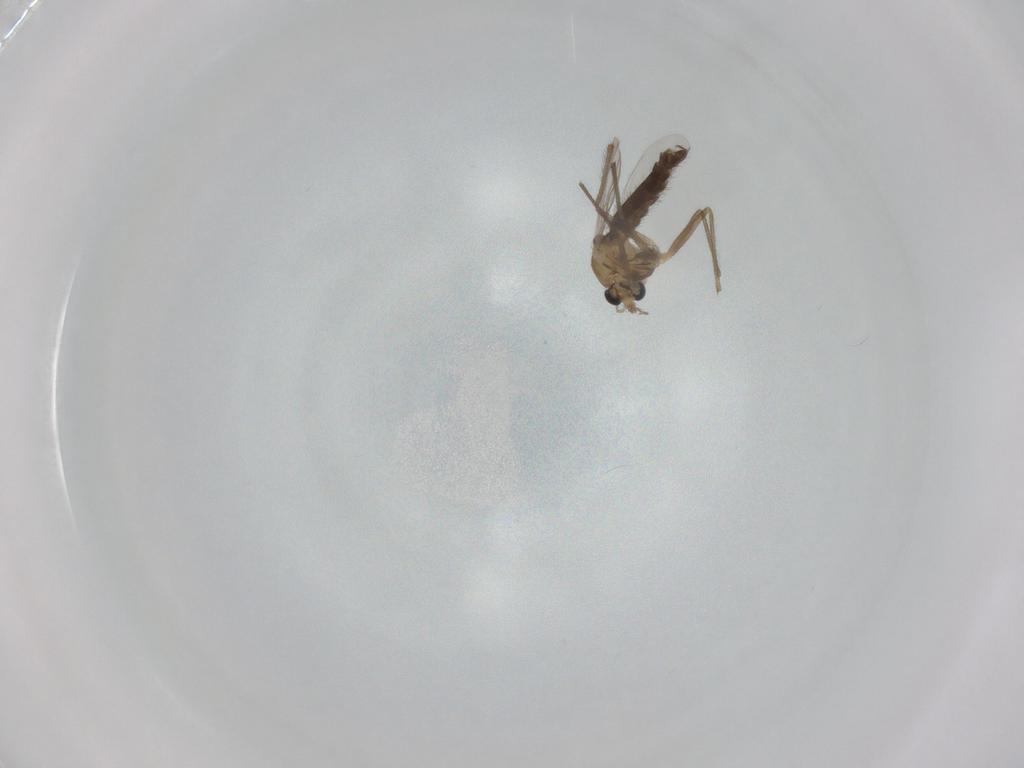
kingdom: Animalia
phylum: Arthropoda
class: Insecta
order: Diptera
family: Chironomidae
